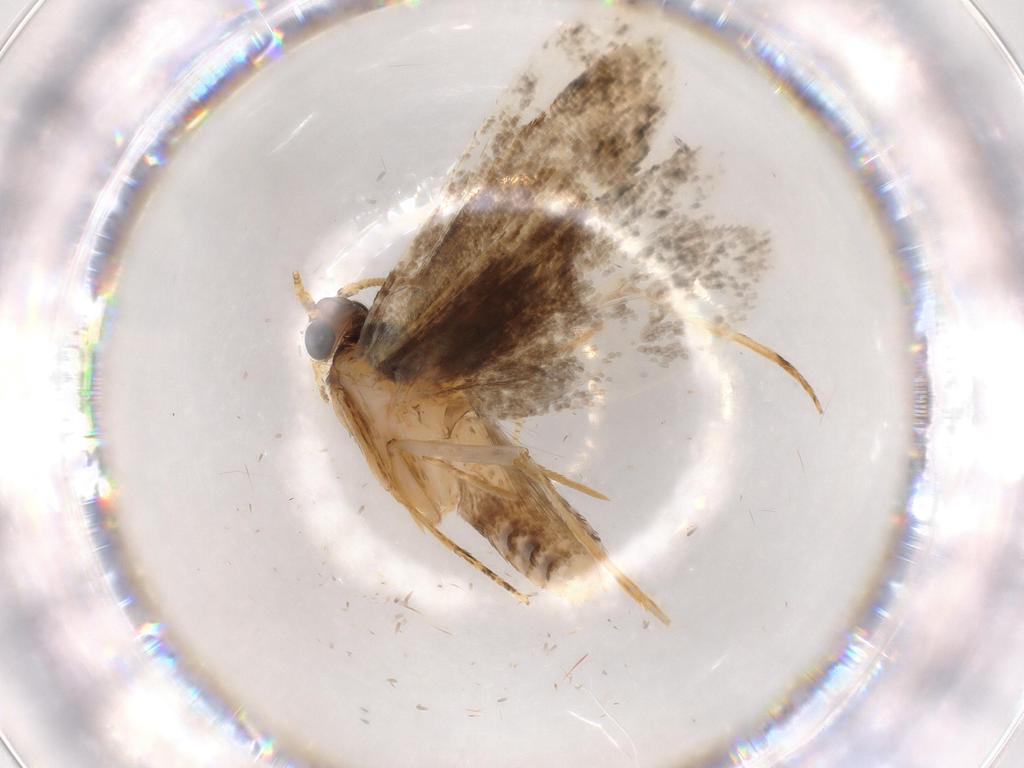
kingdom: Animalia
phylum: Arthropoda
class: Insecta
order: Lepidoptera
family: Tineidae
